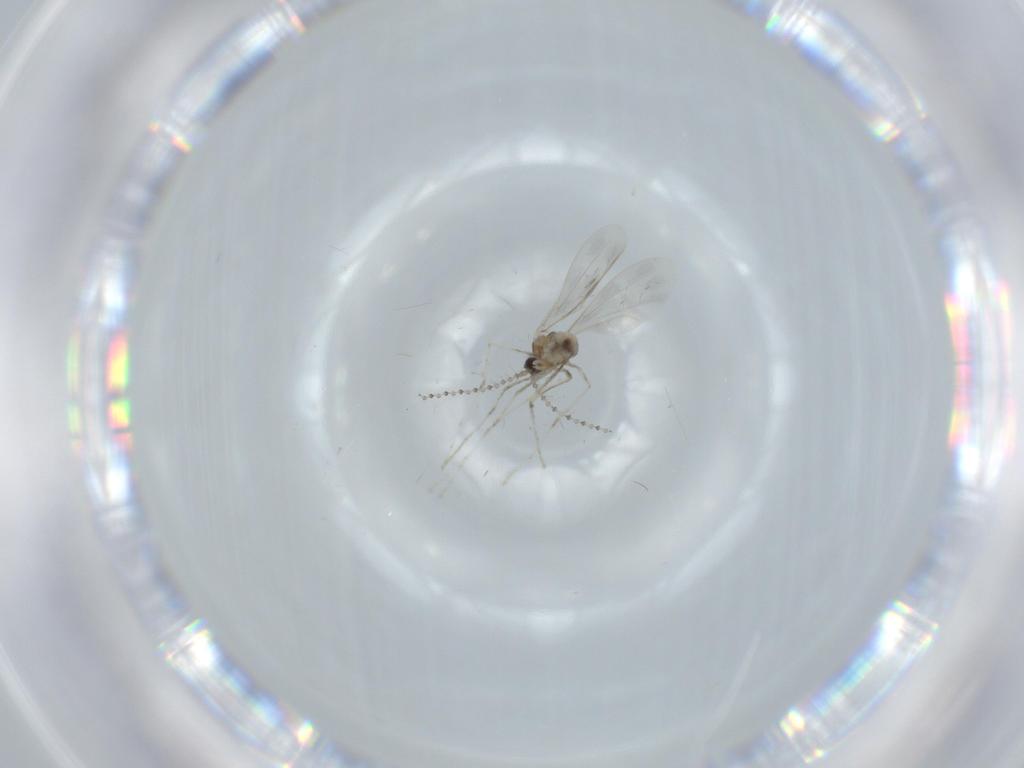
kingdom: Animalia
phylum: Arthropoda
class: Insecta
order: Diptera
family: Cecidomyiidae
